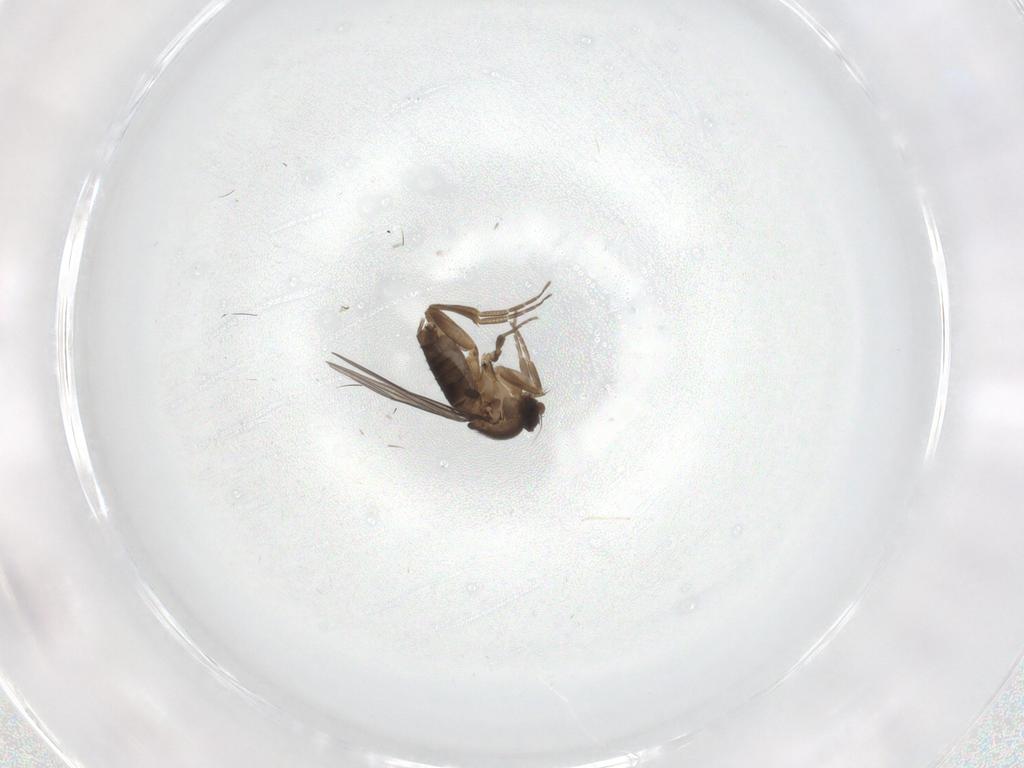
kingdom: Animalia
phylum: Arthropoda
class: Insecta
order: Diptera
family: Phoridae
